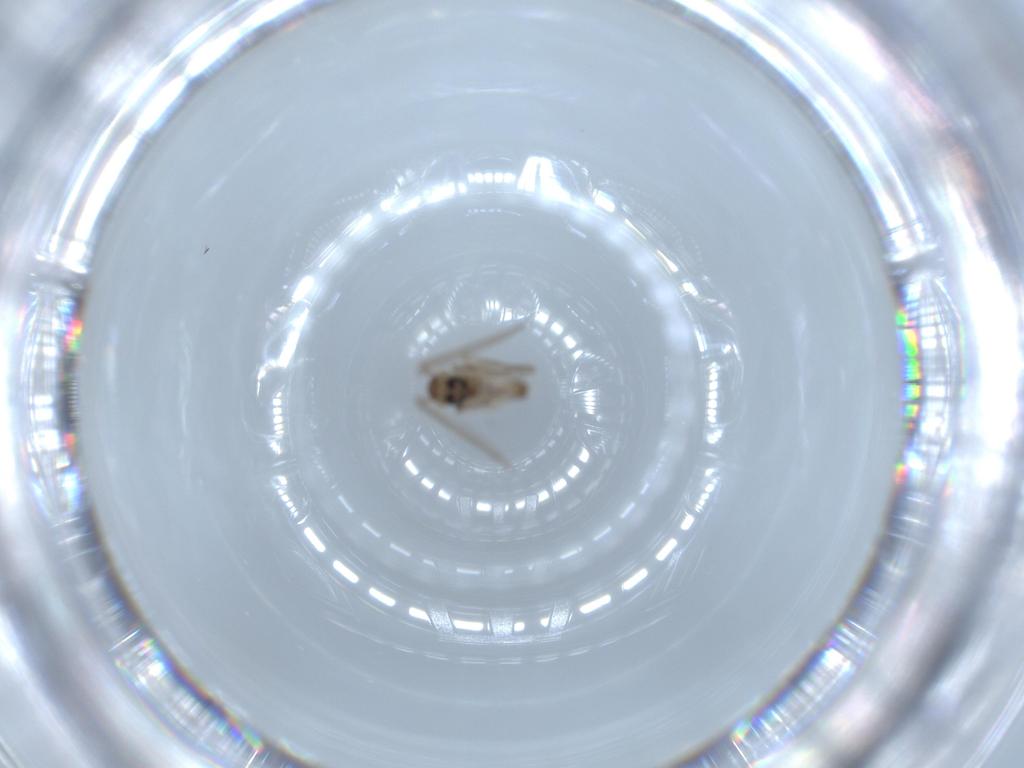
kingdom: Animalia
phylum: Arthropoda
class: Insecta
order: Diptera
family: Psychodidae
